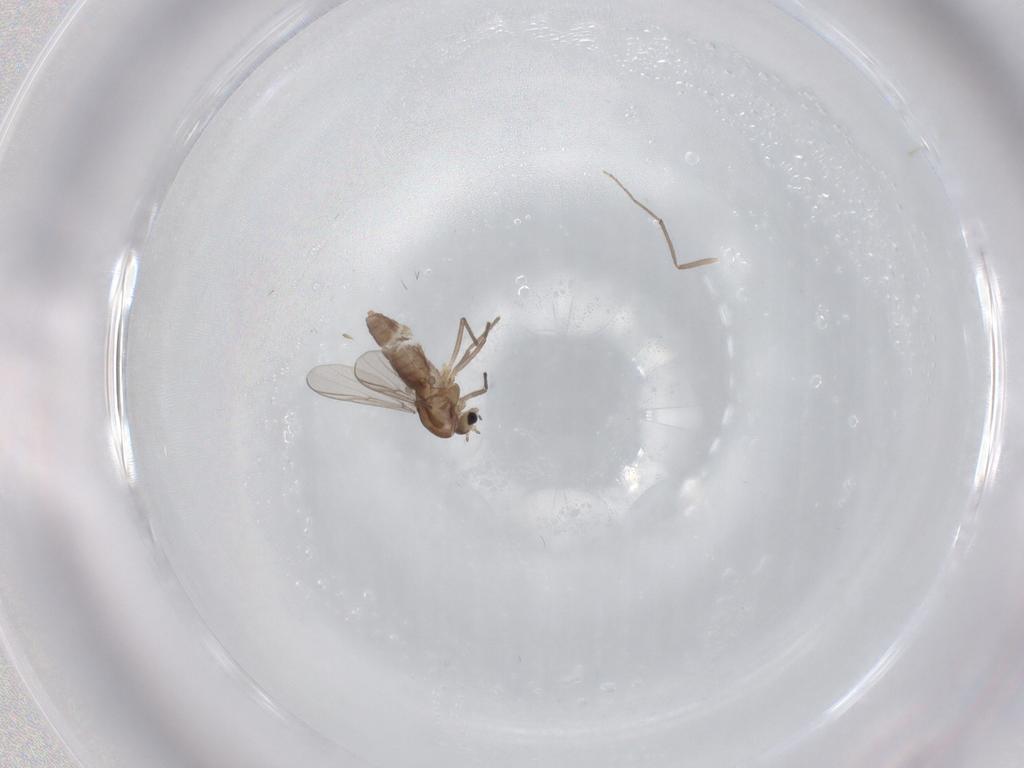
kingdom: Animalia
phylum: Arthropoda
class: Insecta
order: Diptera
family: Chironomidae
